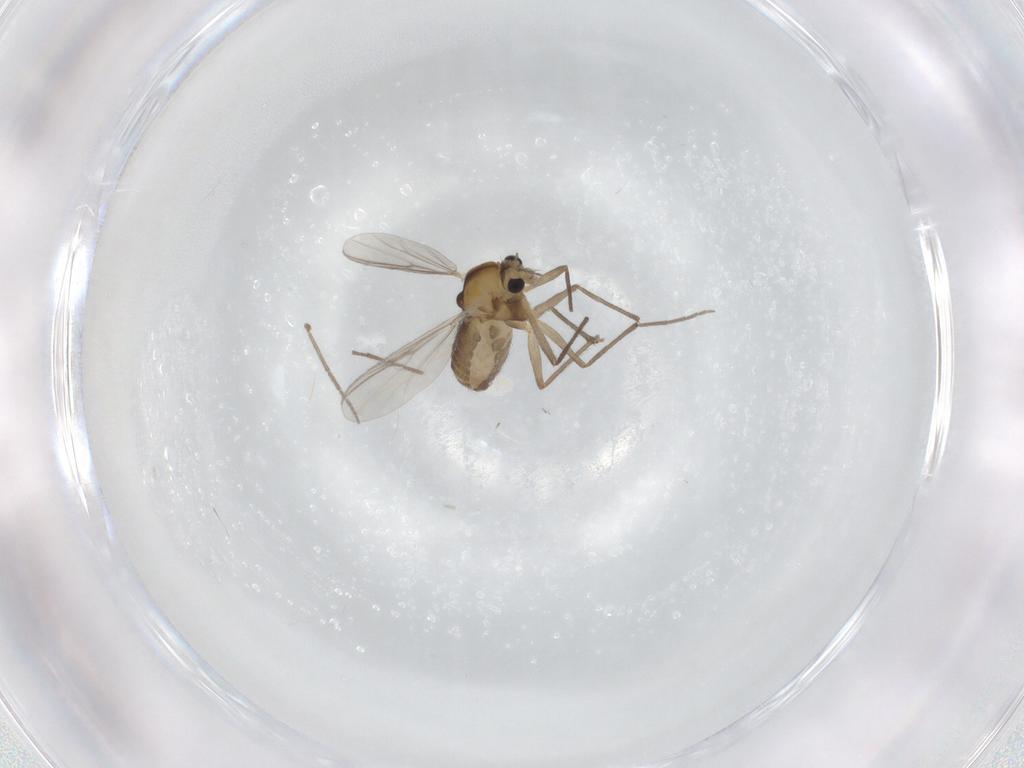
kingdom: Animalia
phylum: Arthropoda
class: Insecta
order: Diptera
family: Chironomidae
